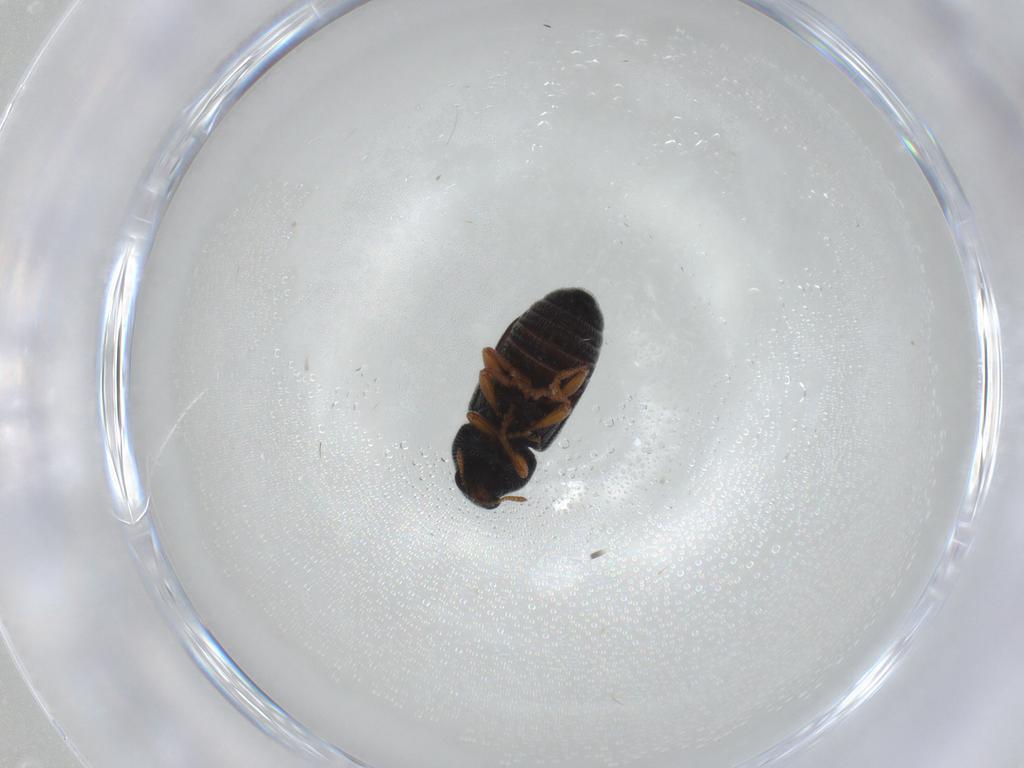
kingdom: Animalia
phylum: Arthropoda
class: Insecta
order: Coleoptera
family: Anthribidae
